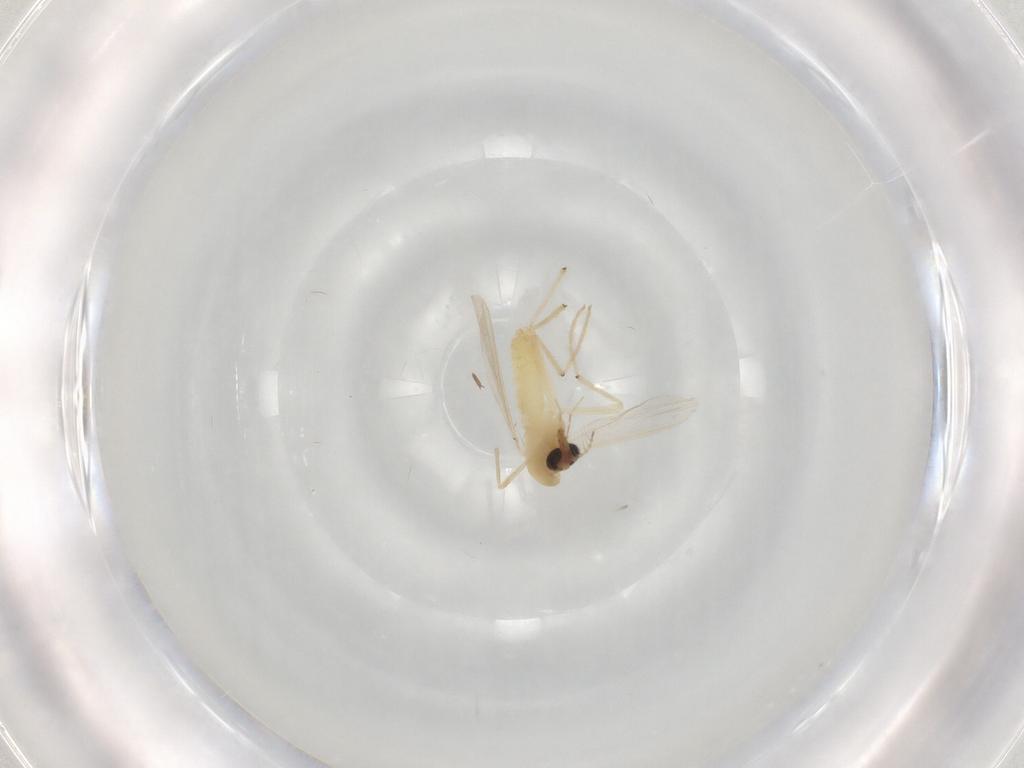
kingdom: Animalia
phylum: Arthropoda
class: Insecta
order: Diptera
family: Chironomidae
